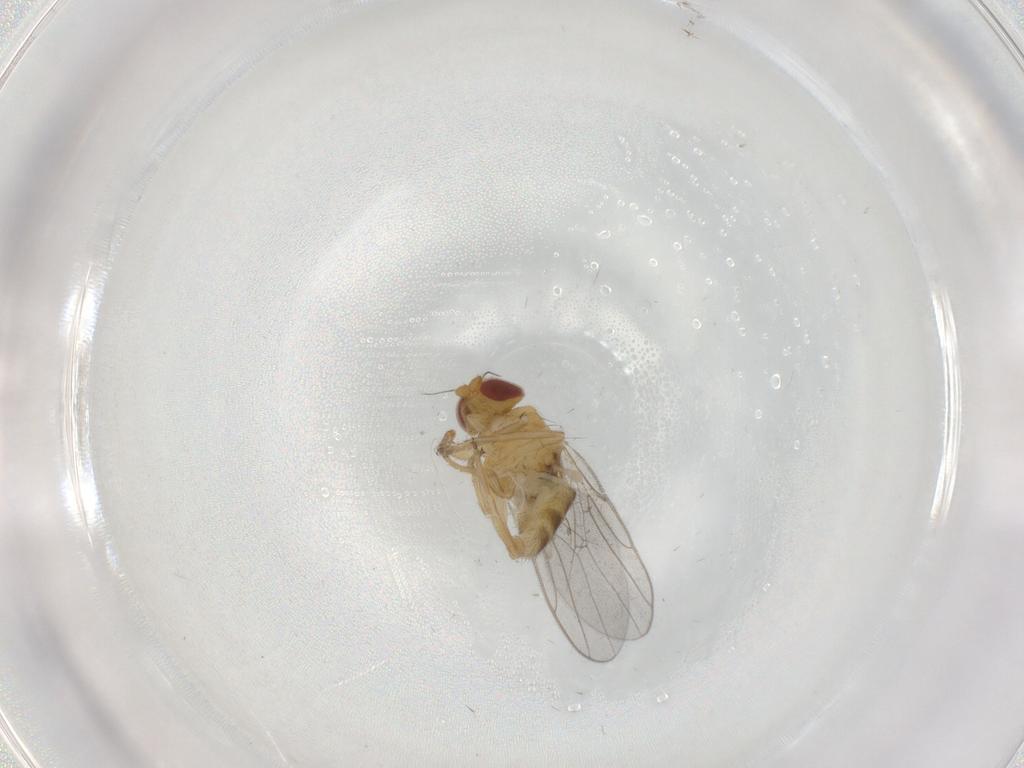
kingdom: Animalia
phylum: Arthropoda
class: Insecta
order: Diptera
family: Chloropidae
